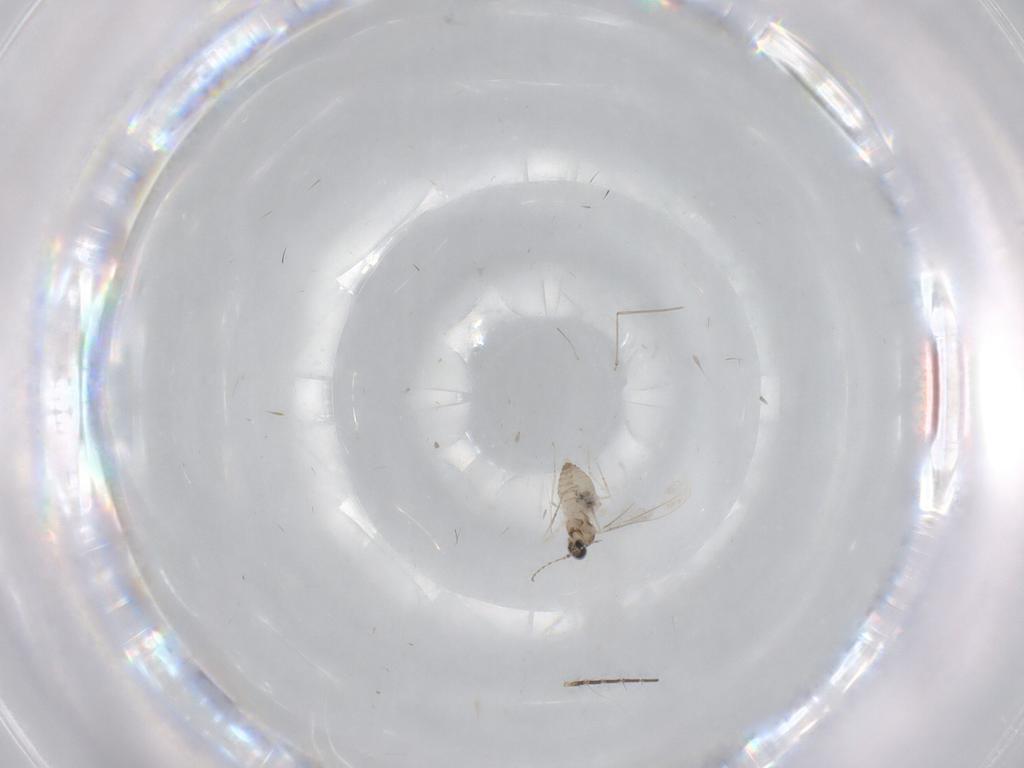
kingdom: Animalia
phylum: Arthropoda
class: Insecta
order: Diptera
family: Cecidomyiidae
